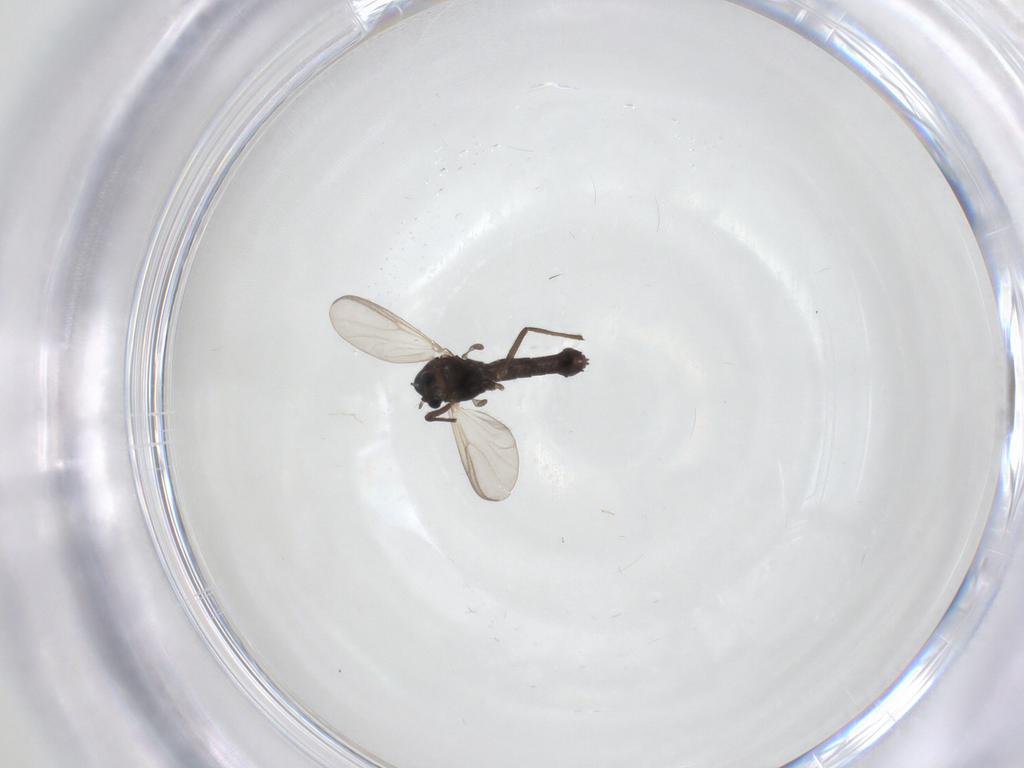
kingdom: Animalia
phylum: Arthropoda
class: Insecta
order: Diptera
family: Chironomidae
